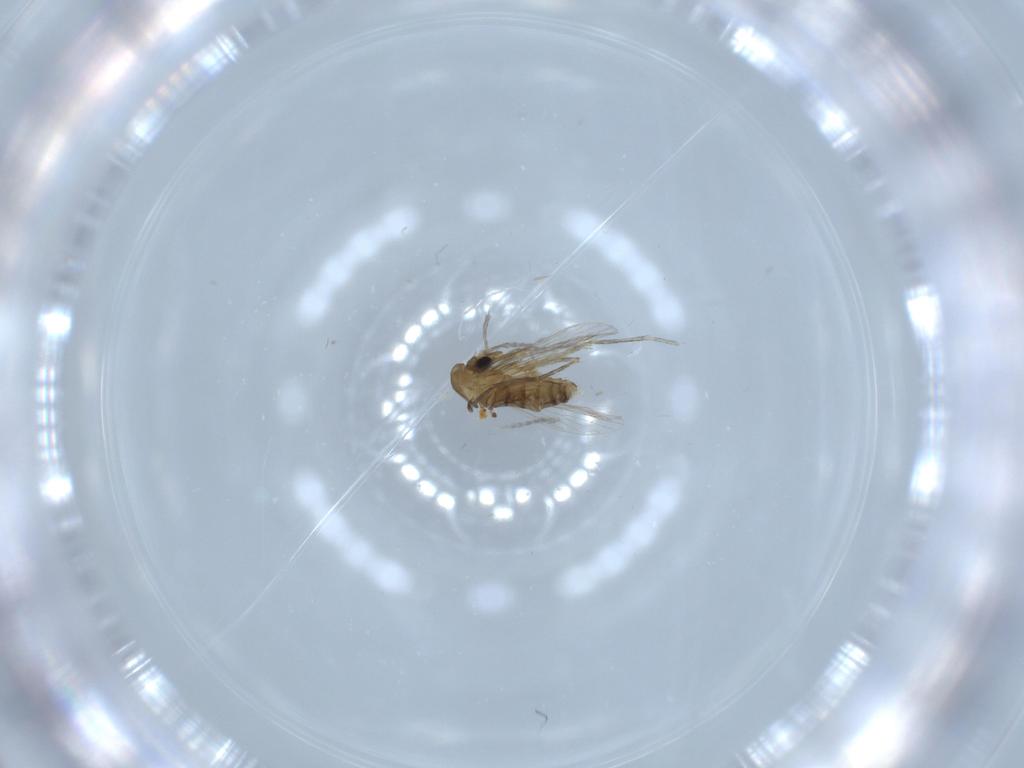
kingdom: Animalia
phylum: Arthropoda
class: Insecta
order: Diptera
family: Psychodidae
